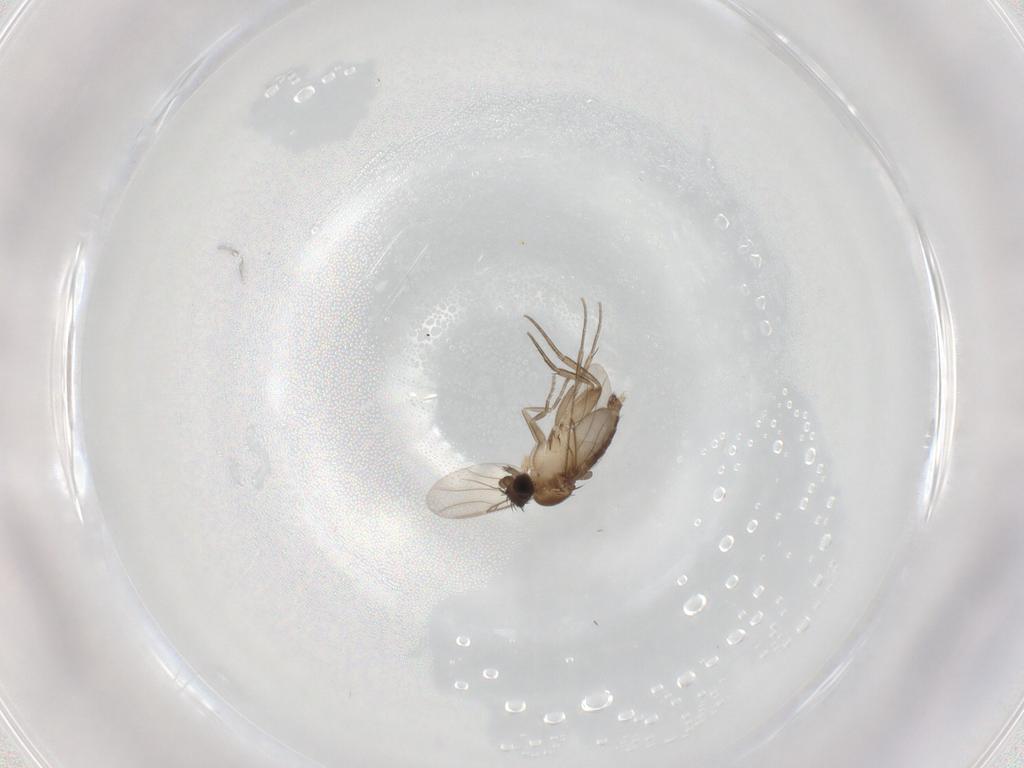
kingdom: Animalia
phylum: Arthropoda
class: Insecta
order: Diptera
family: Phoridae
